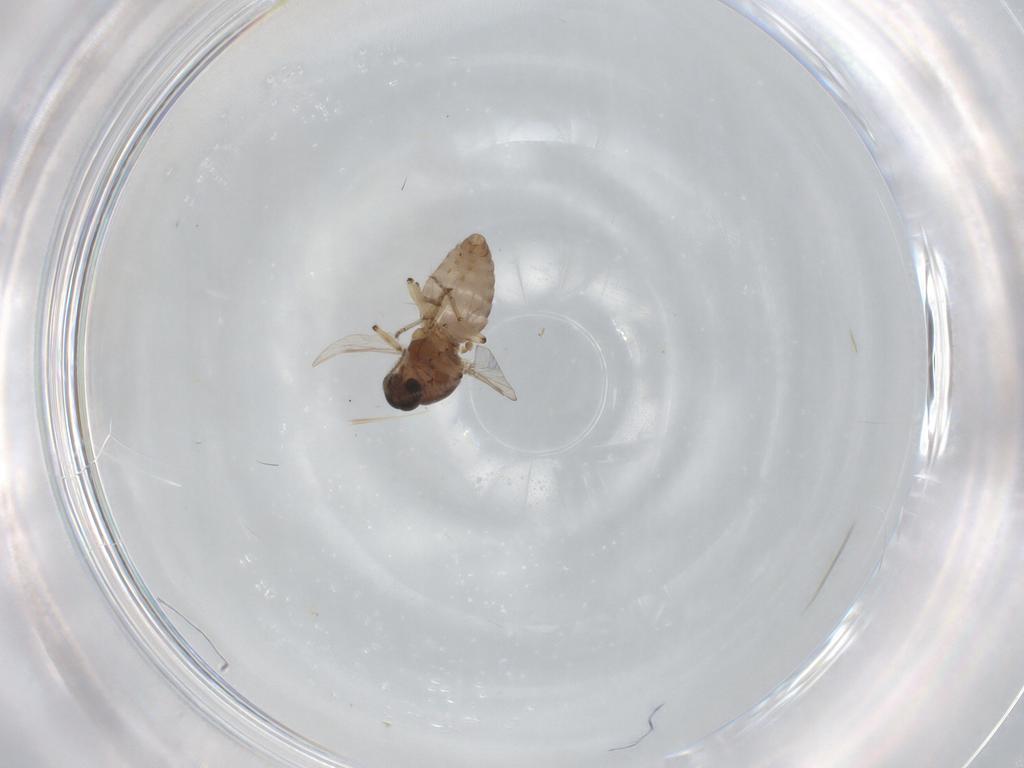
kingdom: Animalia
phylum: Arthropoda
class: Insecta
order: Diptera
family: Ceratopogonidae
